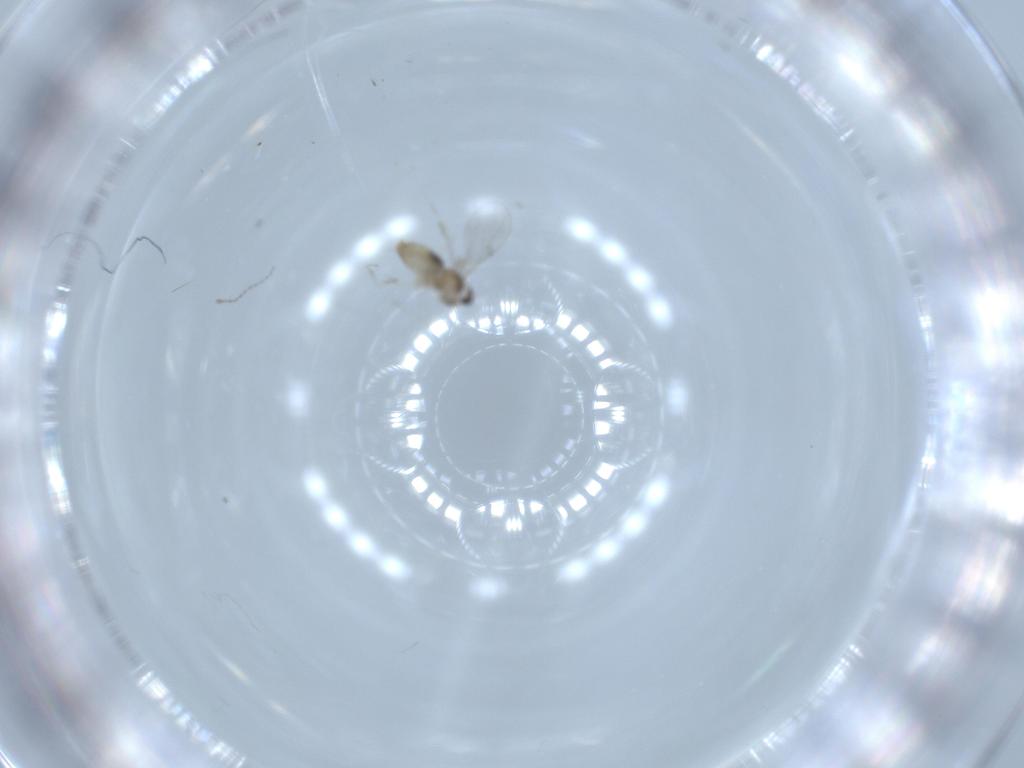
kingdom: Animalia
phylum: Arthropoda
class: Insecta
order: Diptera
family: Cecidomyiidae
